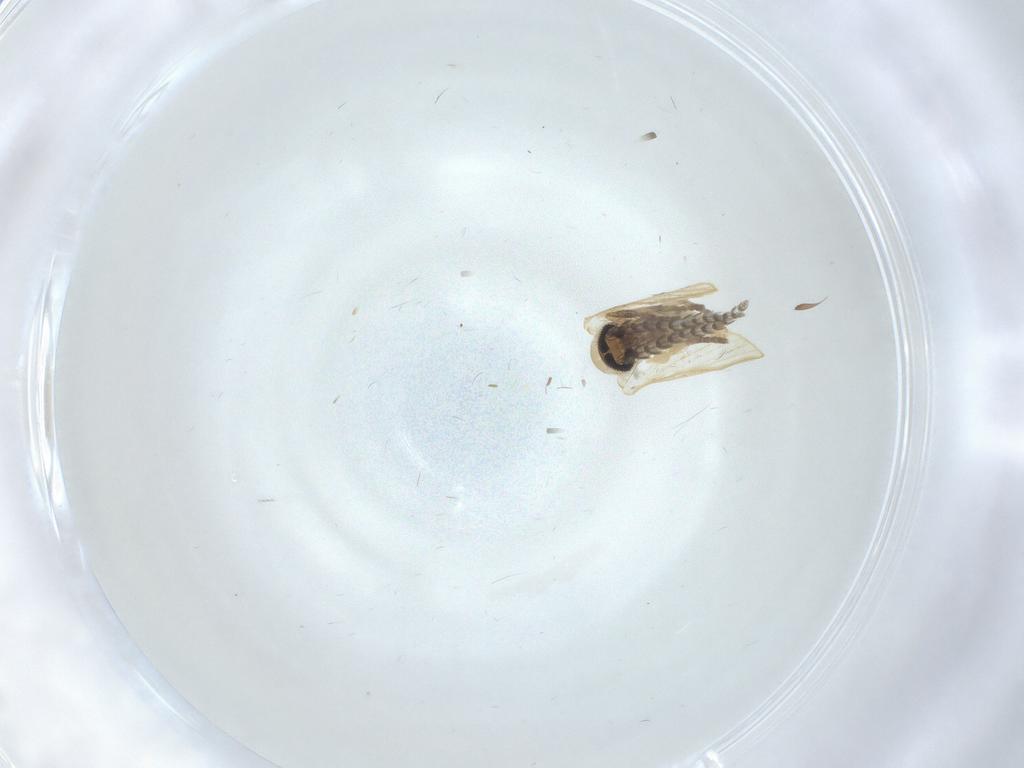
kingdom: Animalia
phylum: Arthropoda
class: Insecta
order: Diptera
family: Psychodidae
